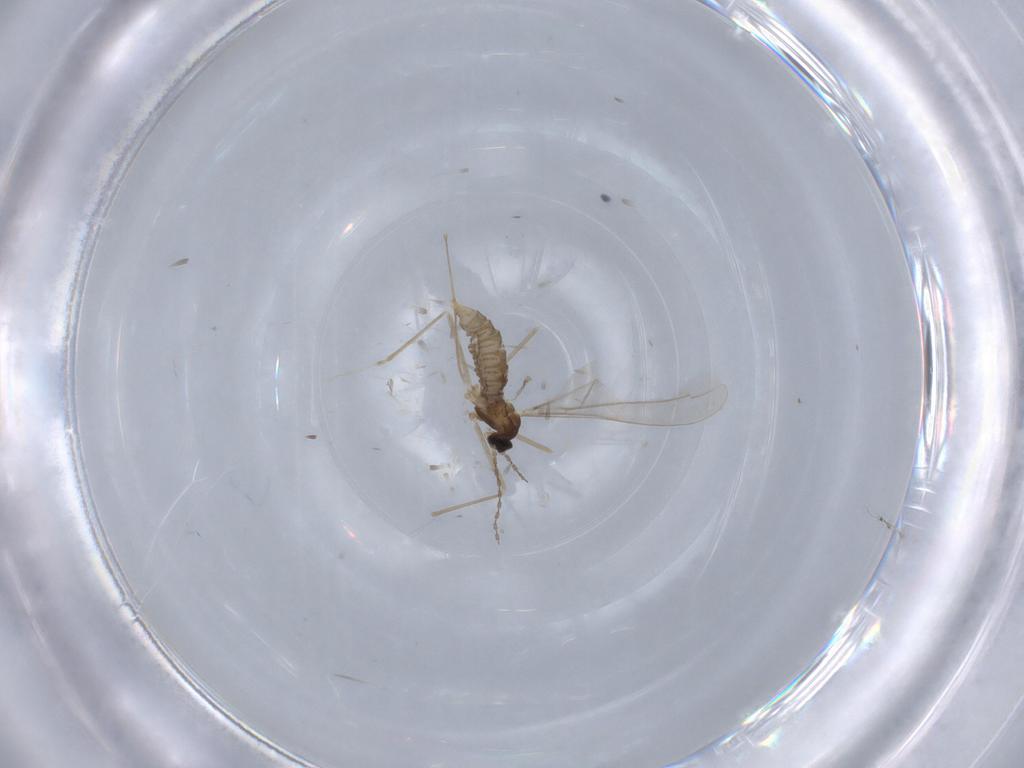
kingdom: Animalia
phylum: Arthropoda
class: Insecta
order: Diptera
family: Cecidomyiidae
